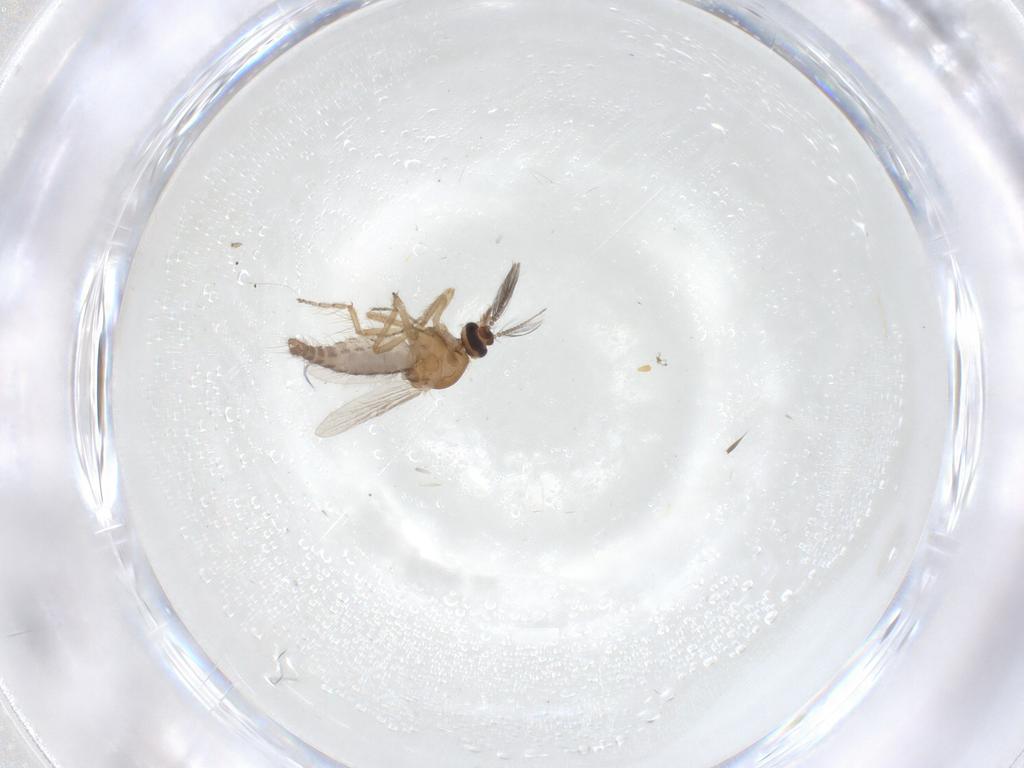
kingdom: Animalia
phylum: Arthropoda
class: Insecta
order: Diptera
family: Ceratopogonidae
